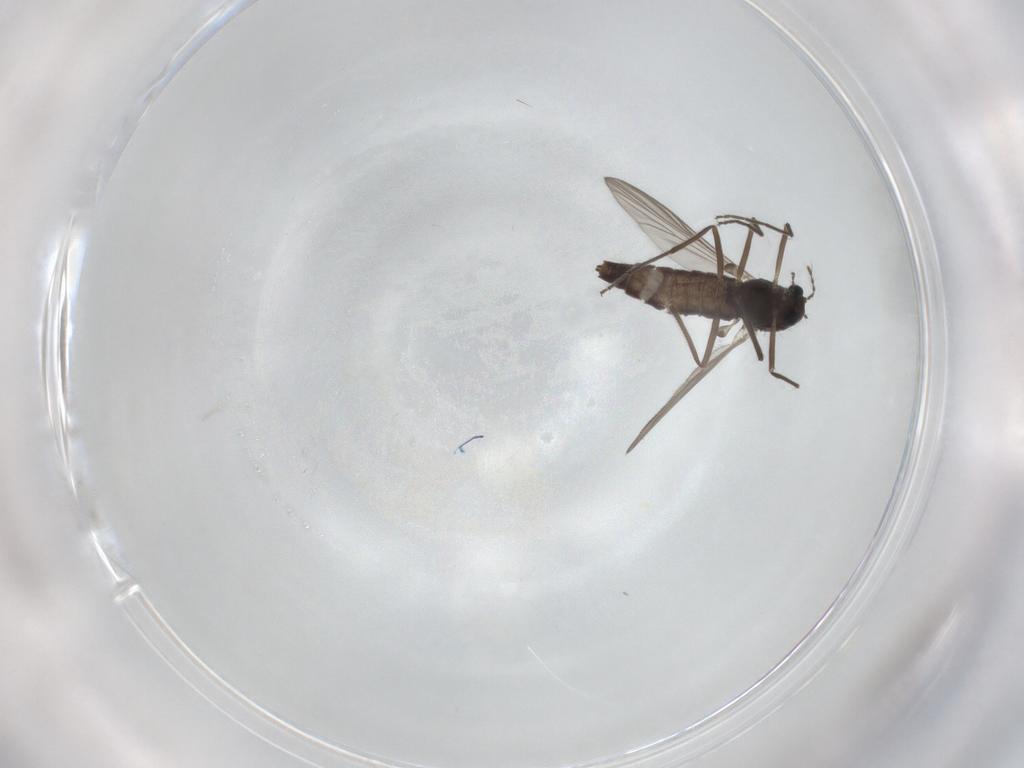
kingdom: Animalia
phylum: Arthropoda
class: Insecta
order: Diptera
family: Chironomidae
